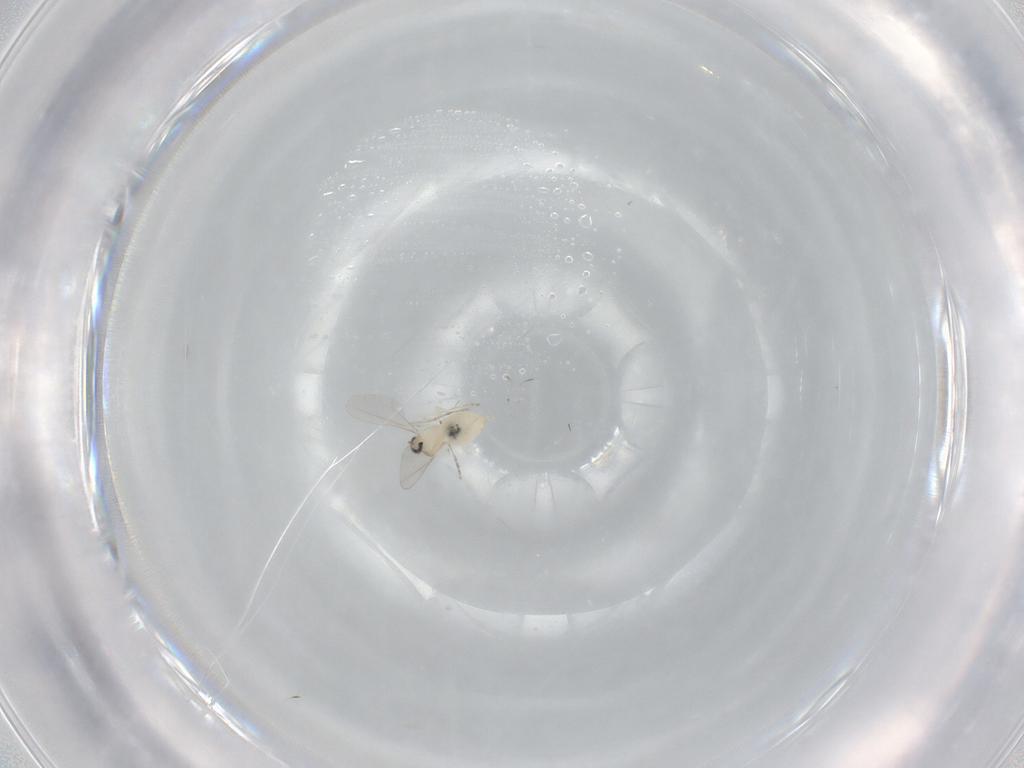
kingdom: Animalia
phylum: Arthropoda
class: Insecta
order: Diptera
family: Cecidomyiidae
